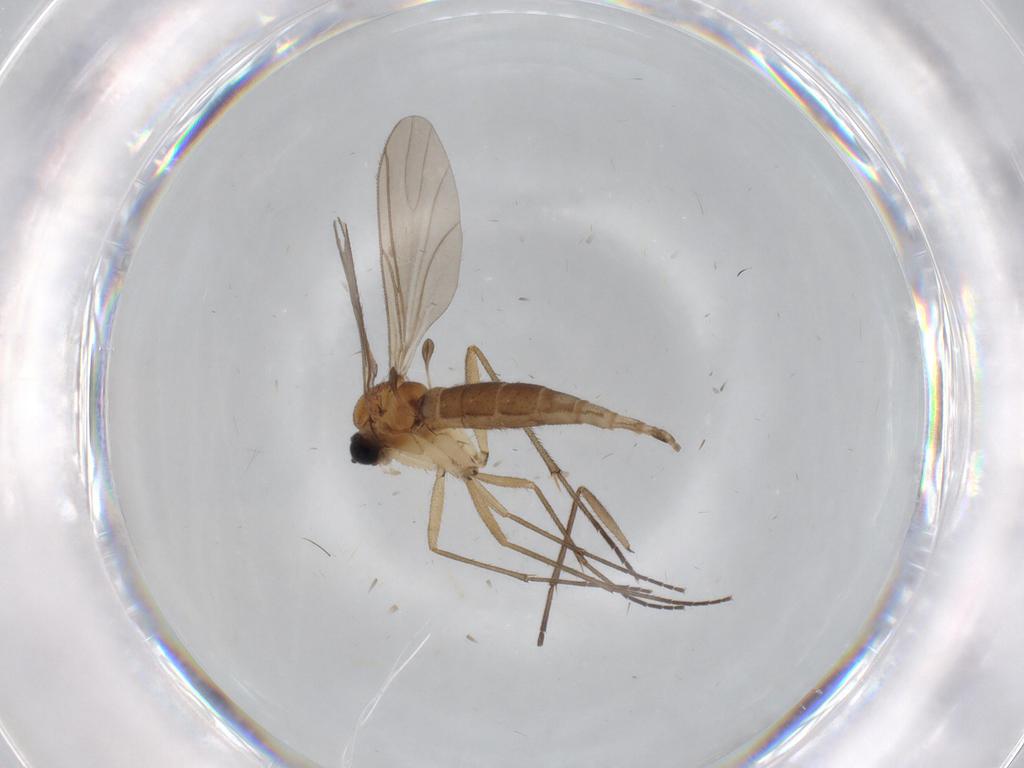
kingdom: Animalia
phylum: Arthropoda
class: Insecta
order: Diptera
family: Sciaridae
